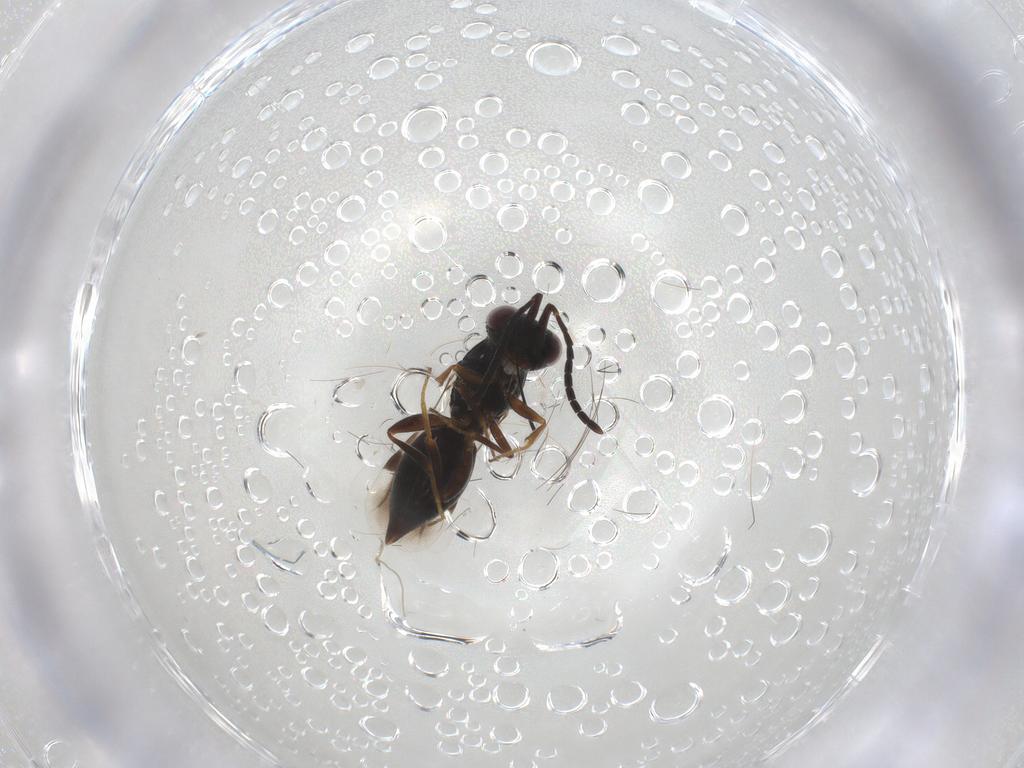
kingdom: Animalia
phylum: Arthropoda
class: Insecta
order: Hymenoptera
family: Megaspilidae
